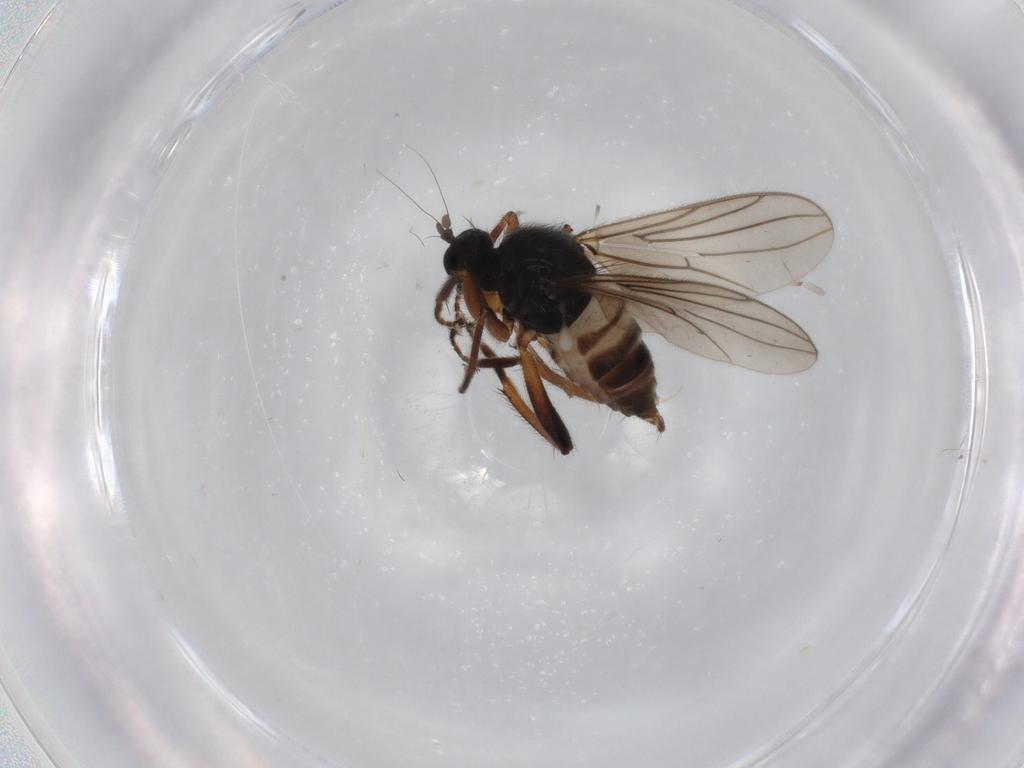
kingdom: Animalia
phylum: Arthropoda
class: Insecta
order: Diptera
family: Hybotidae
